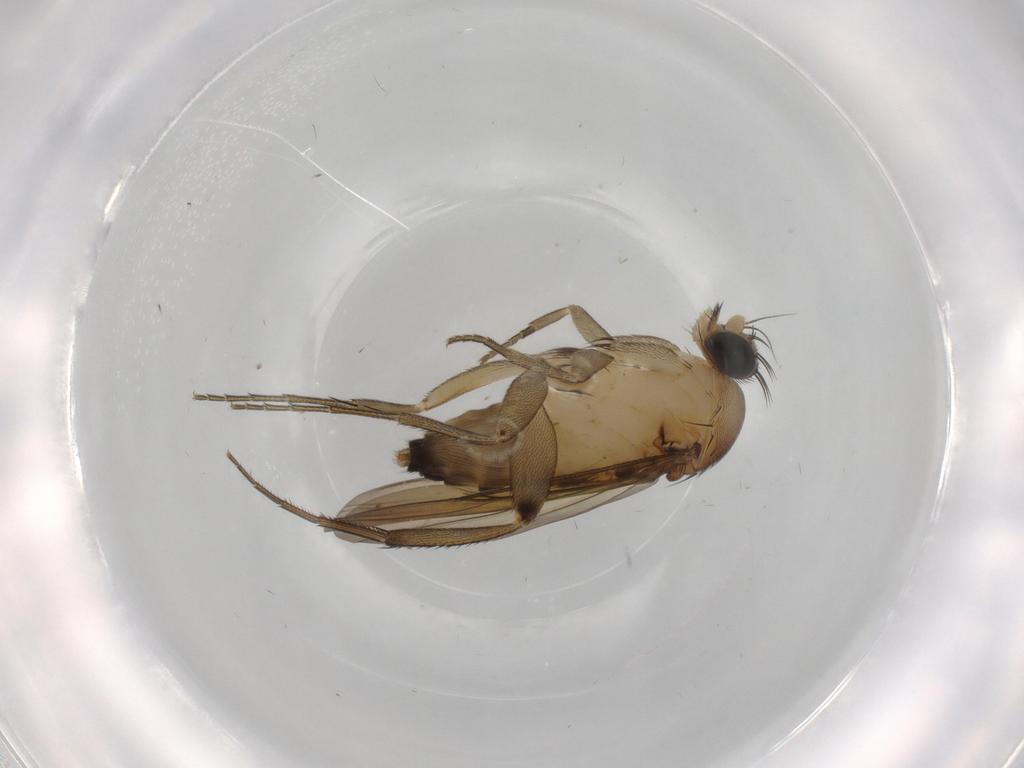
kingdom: Animalia
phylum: Arthropoda
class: Insecta
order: Diptera
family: Phoridae
